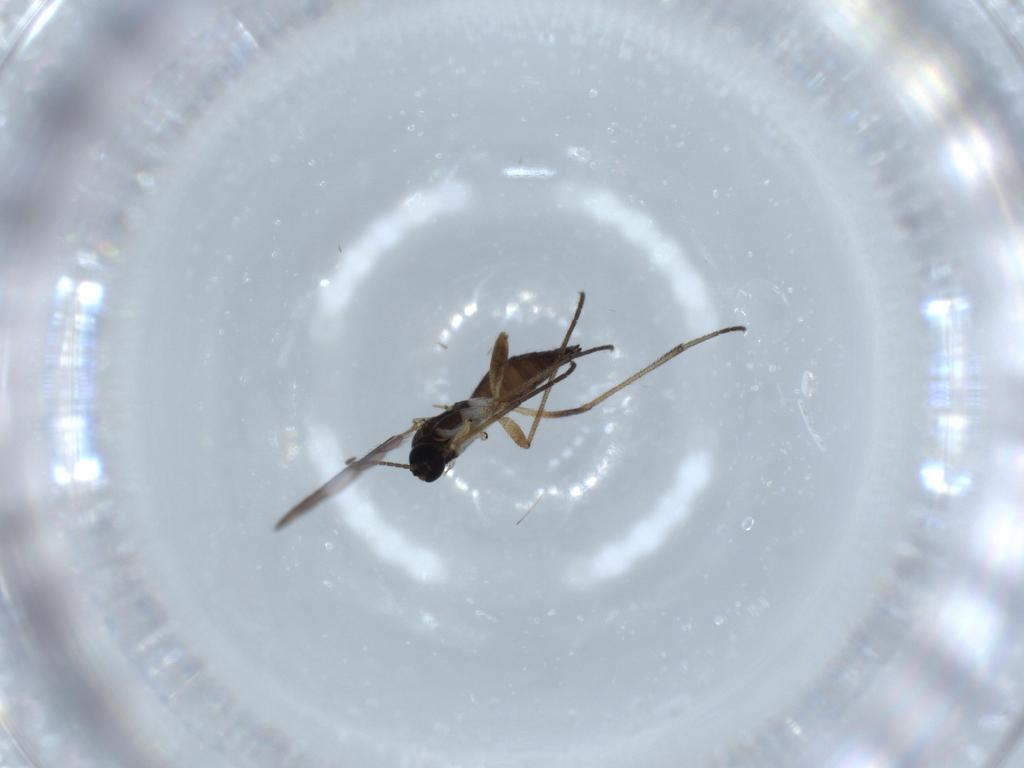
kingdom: Animalia
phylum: Arthropoda
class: Insecta
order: Diptera
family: Sciaridae
